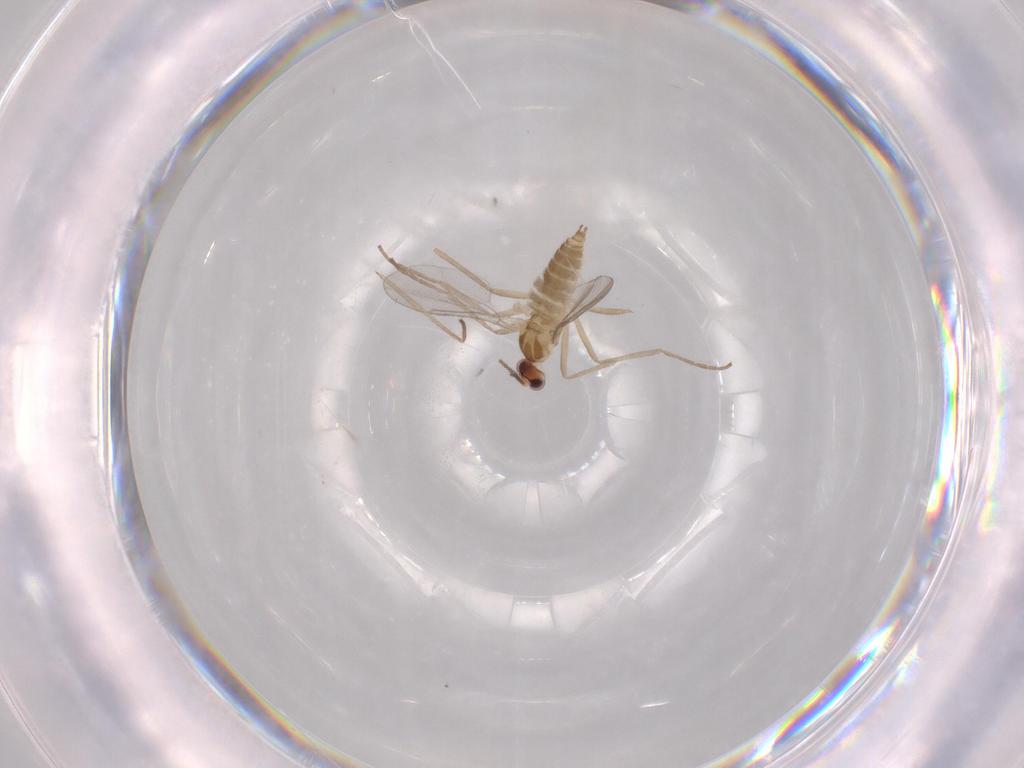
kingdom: Animalia
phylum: Arthropoda
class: Insecta
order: Diptera
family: Cecidomyiidae
